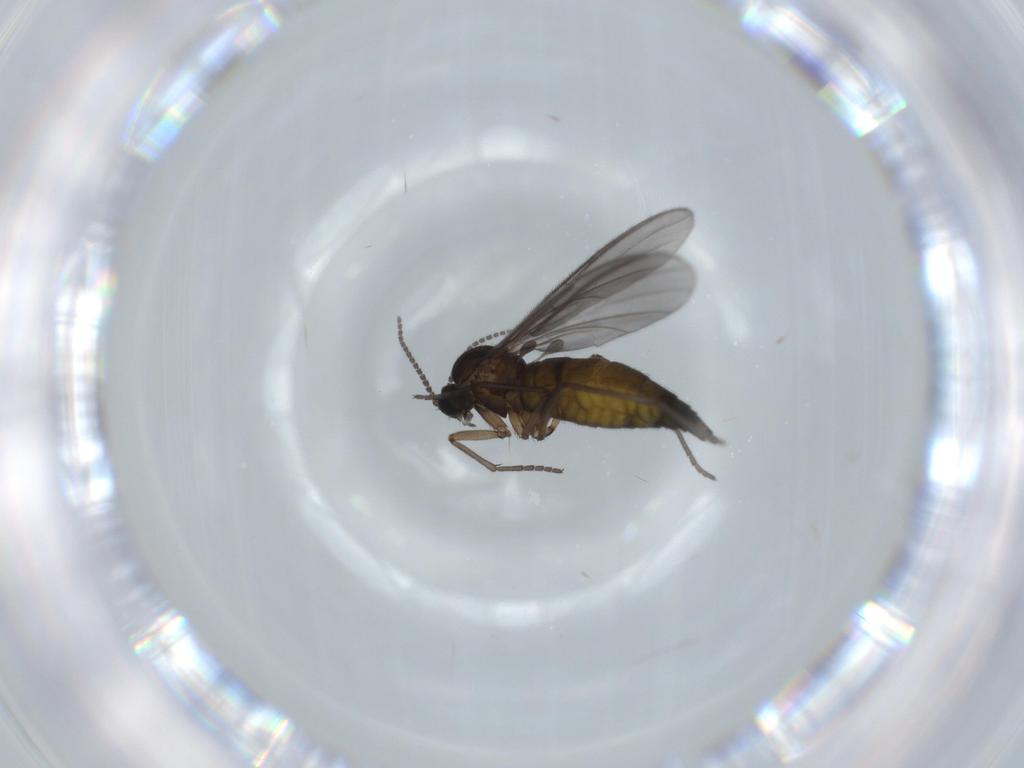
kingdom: Animalia
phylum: Arthropoda
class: Insecta
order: Diptera
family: Sciaridae
